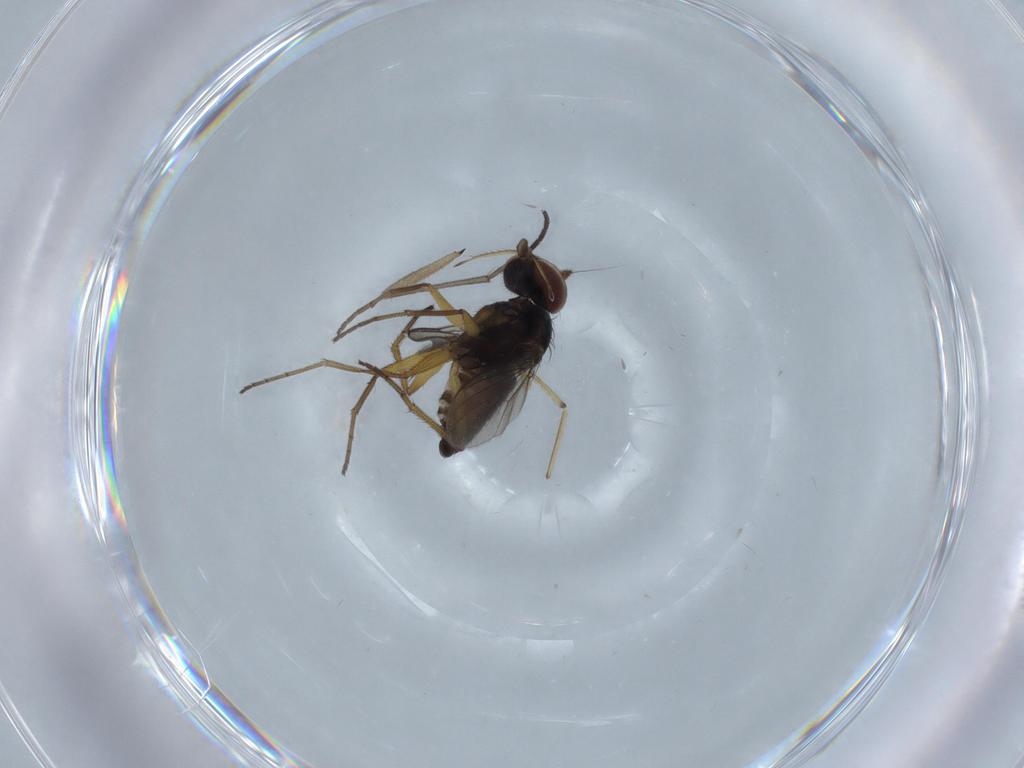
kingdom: Animalia
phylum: Arthropoda
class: Insecta
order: Diptera
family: Dolichopodidae
